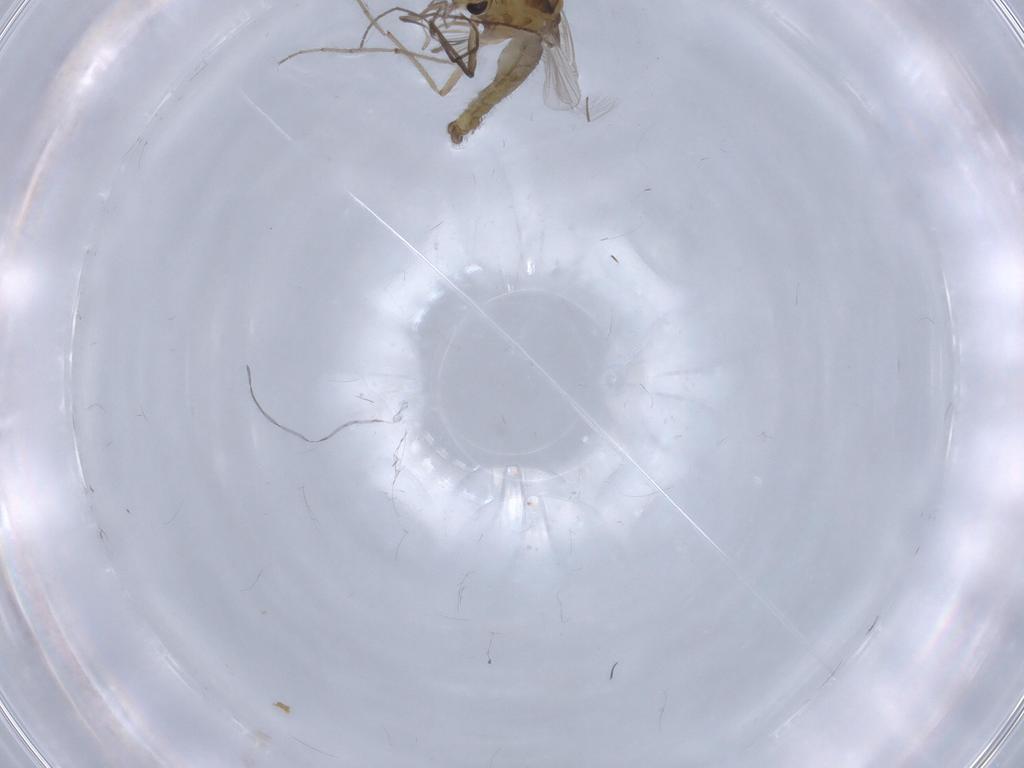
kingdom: Animalia
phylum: Arthropoda
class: Insecta
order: Diptera
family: Chironomidae
